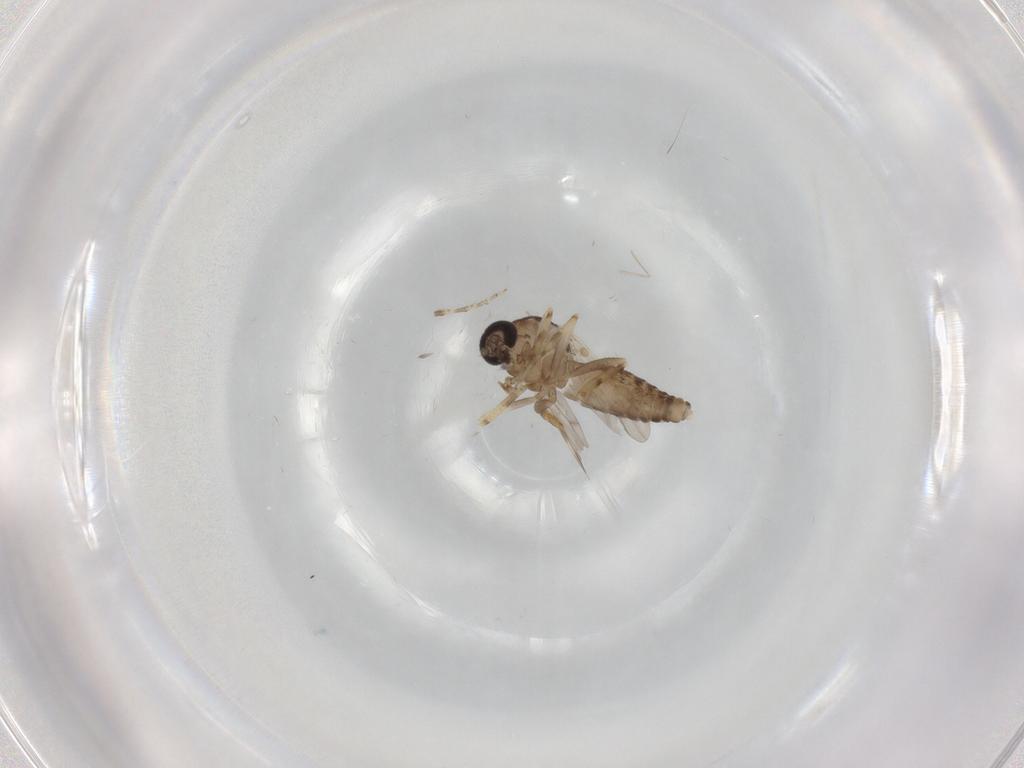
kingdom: Animalia
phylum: Arthropoda
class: Insecta
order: Diptera
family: Ceratopogonidae
